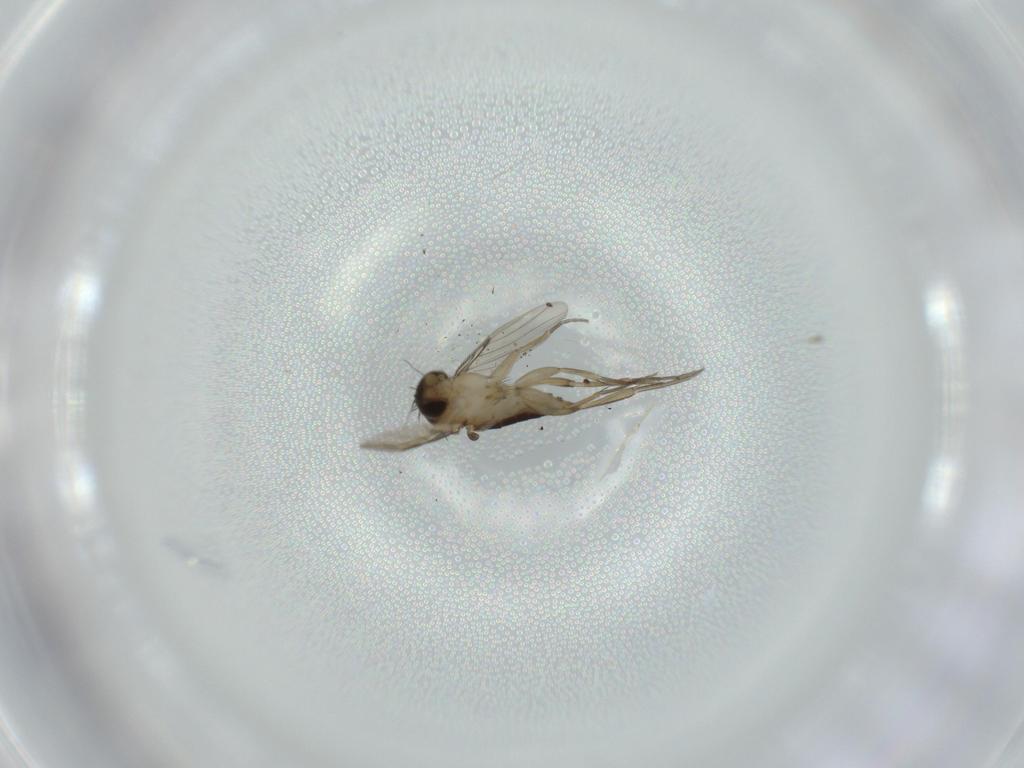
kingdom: Animalia
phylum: Arthropoda
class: Insecta
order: Diptera
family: Phoridae
